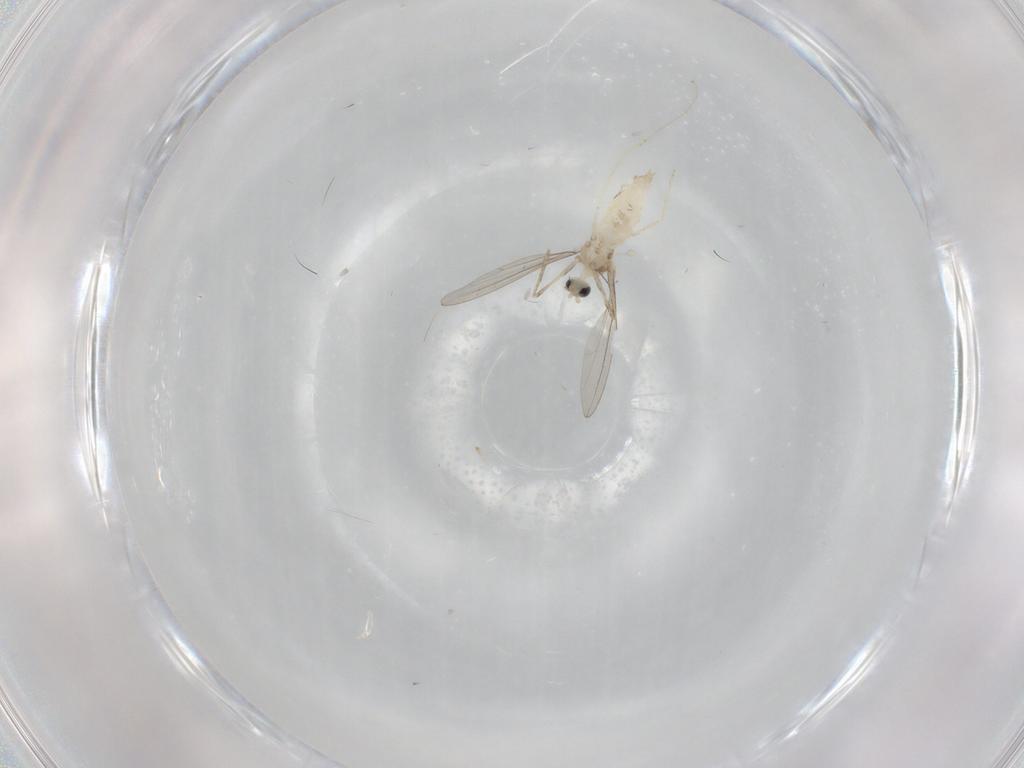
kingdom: Animalia
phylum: Arthropoda
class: Insecta
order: Diptera
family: Cecidomyiidae
